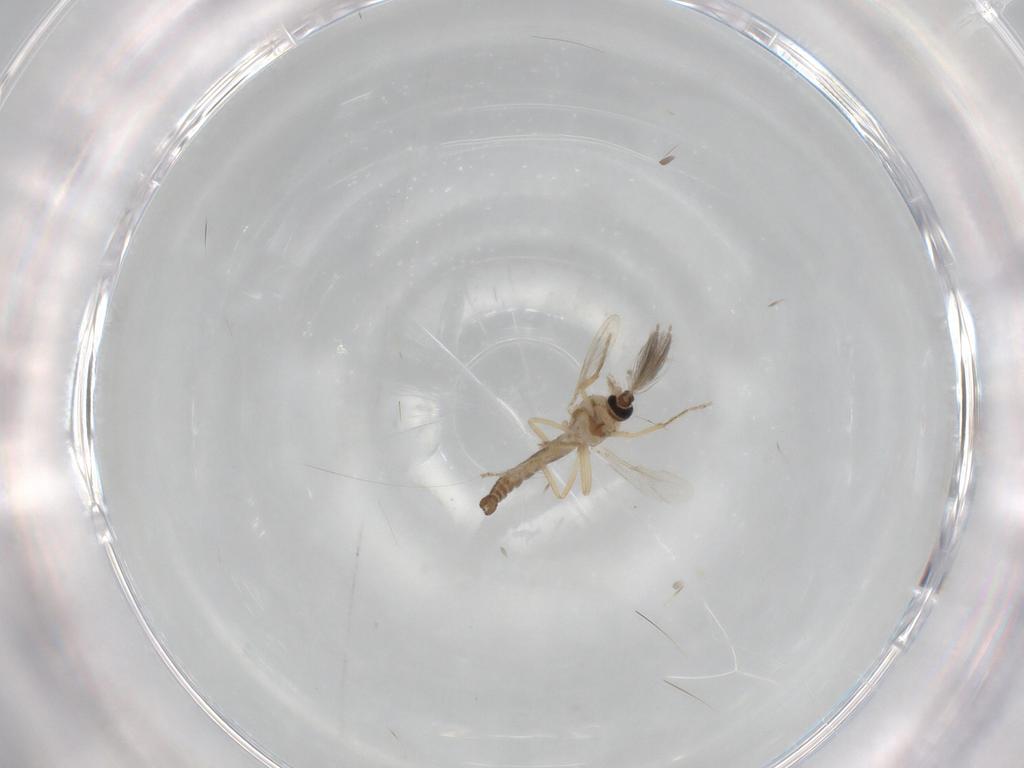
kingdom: Animalia
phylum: Arthropoda
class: Insecta
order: Diptera
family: Ceratopogonidae
